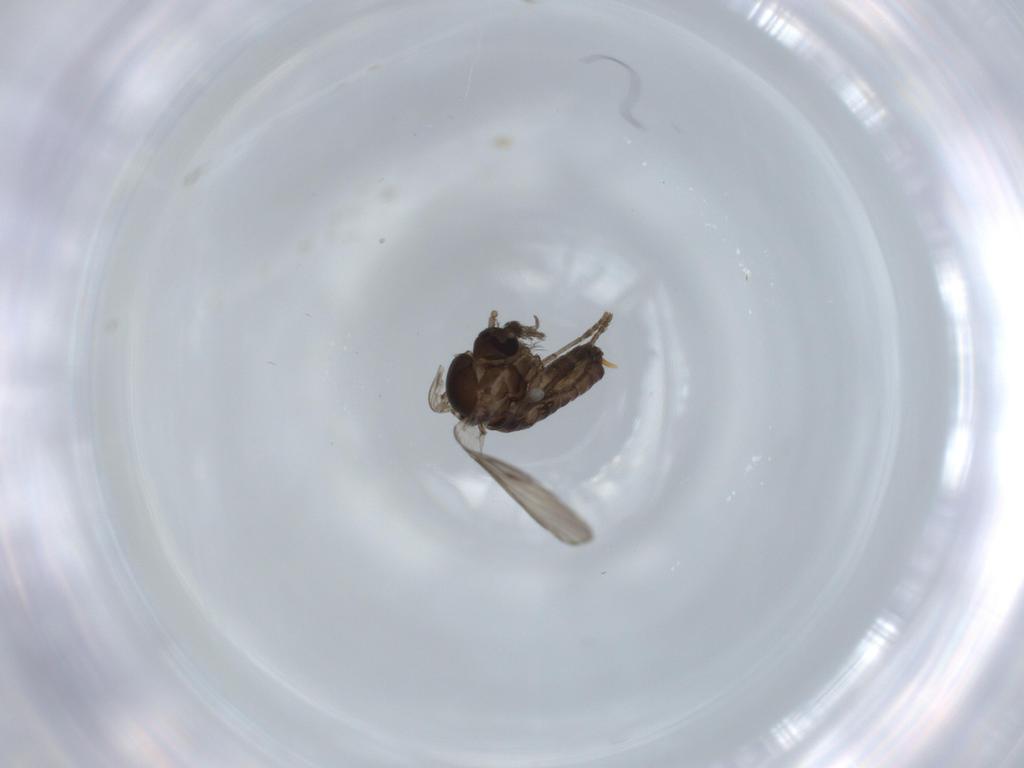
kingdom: Animalia
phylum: Arthropoda
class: Insecta
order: Diptera
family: Psychodidae
